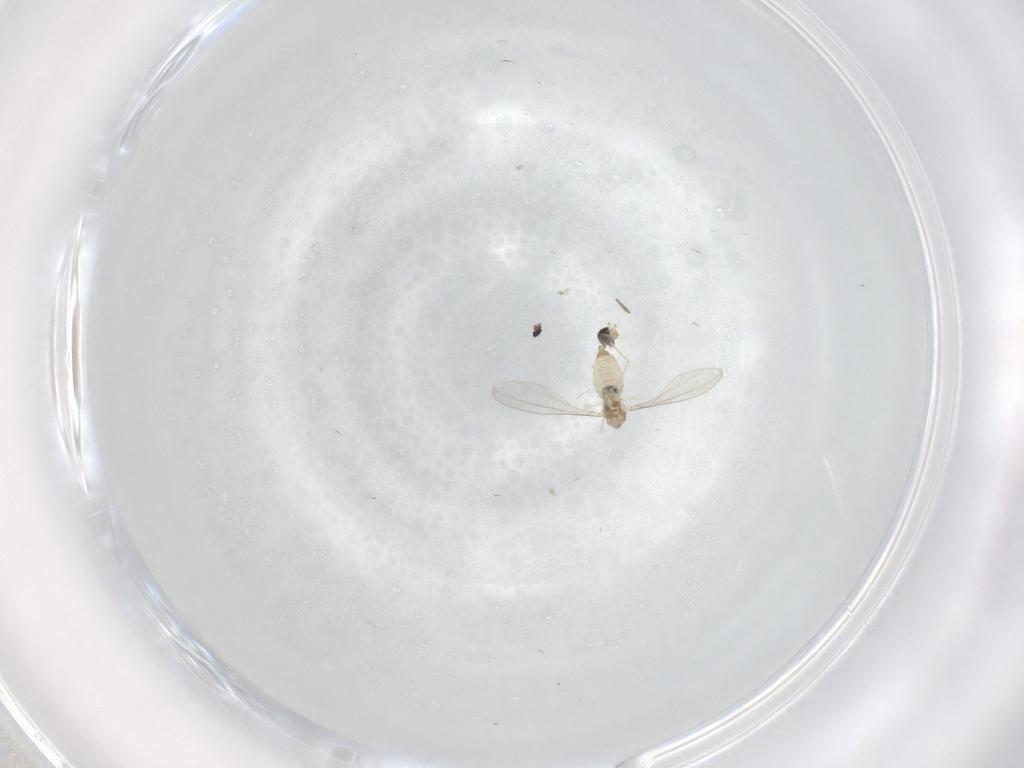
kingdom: Animalia
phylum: Arthropoda
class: Insecta
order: Diptera
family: Cecidomyiidae
